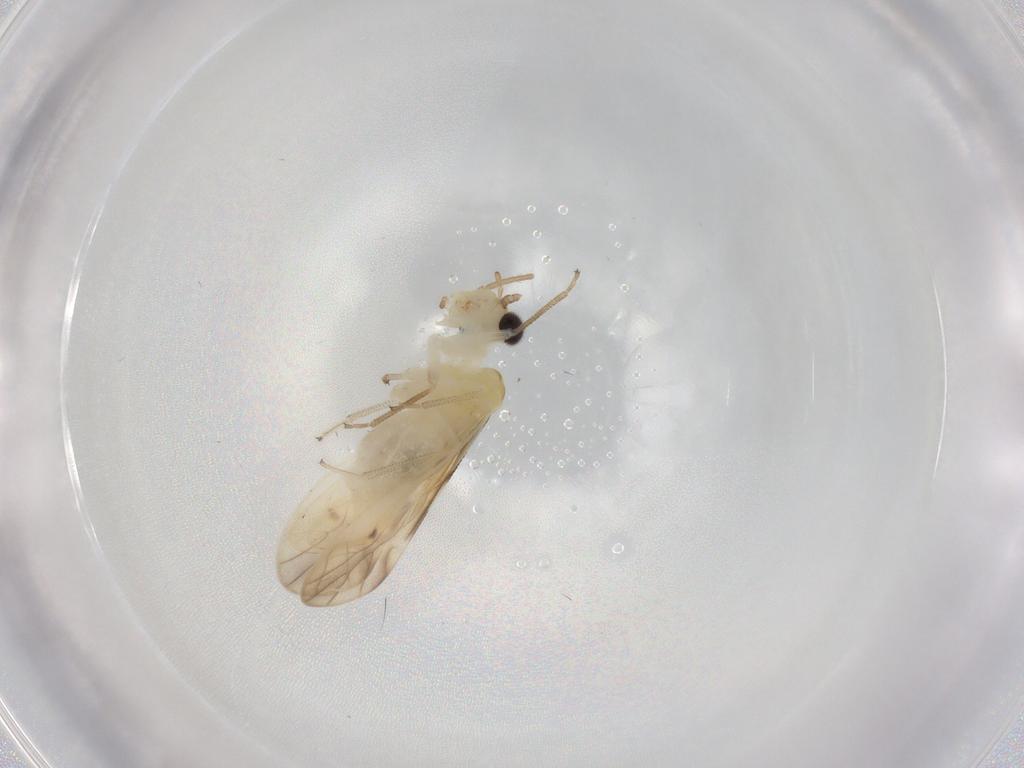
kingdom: Animalia
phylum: Arthropoda
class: Insecta
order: Psocodea
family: Caeciliusidae
